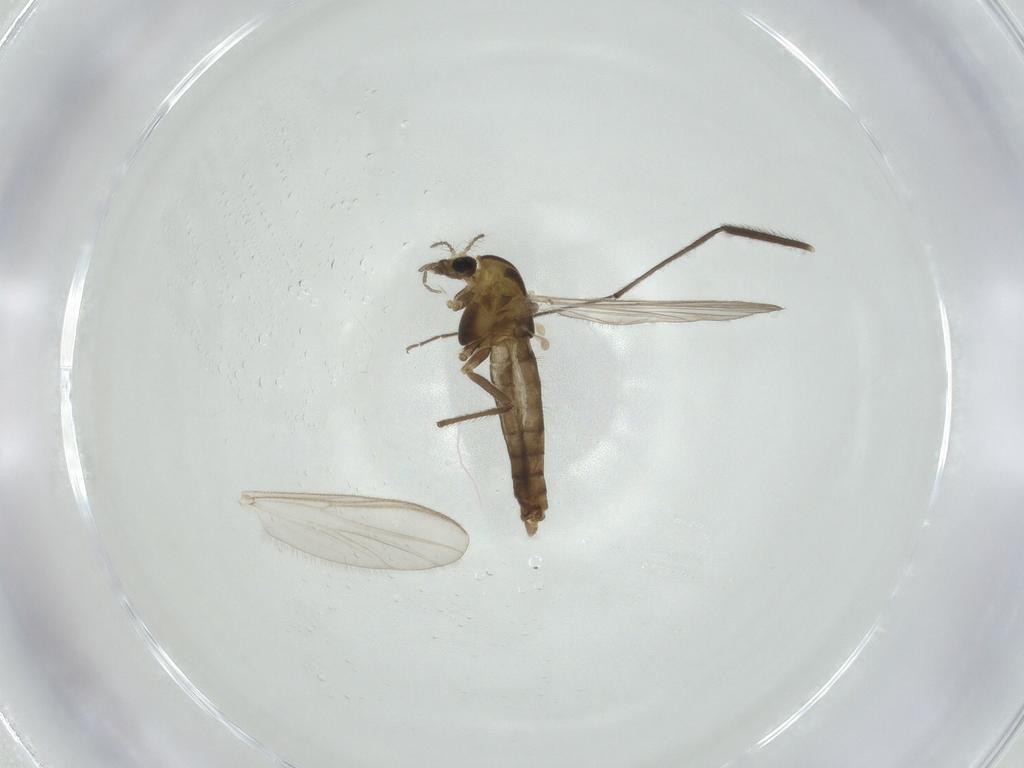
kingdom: Animalia
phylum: Arthropoda
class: Insecta
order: Diptera
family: Chironomidae
